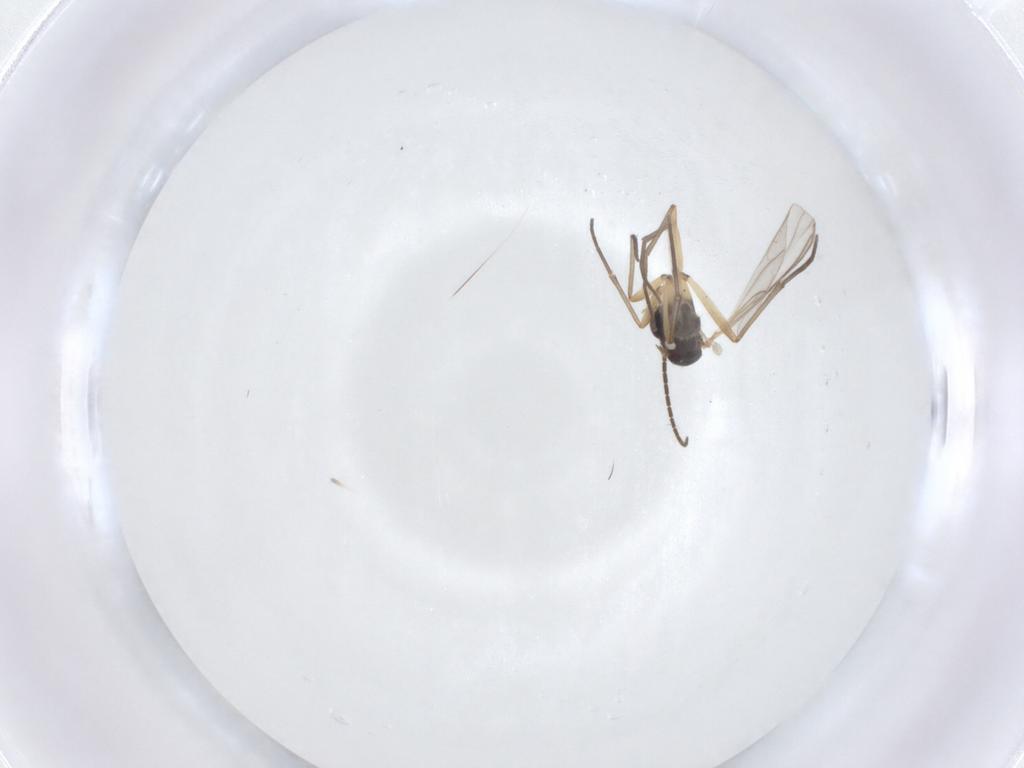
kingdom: Animalia
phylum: Arthropoda
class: Insecta
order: Diptera
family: Sciaridae
